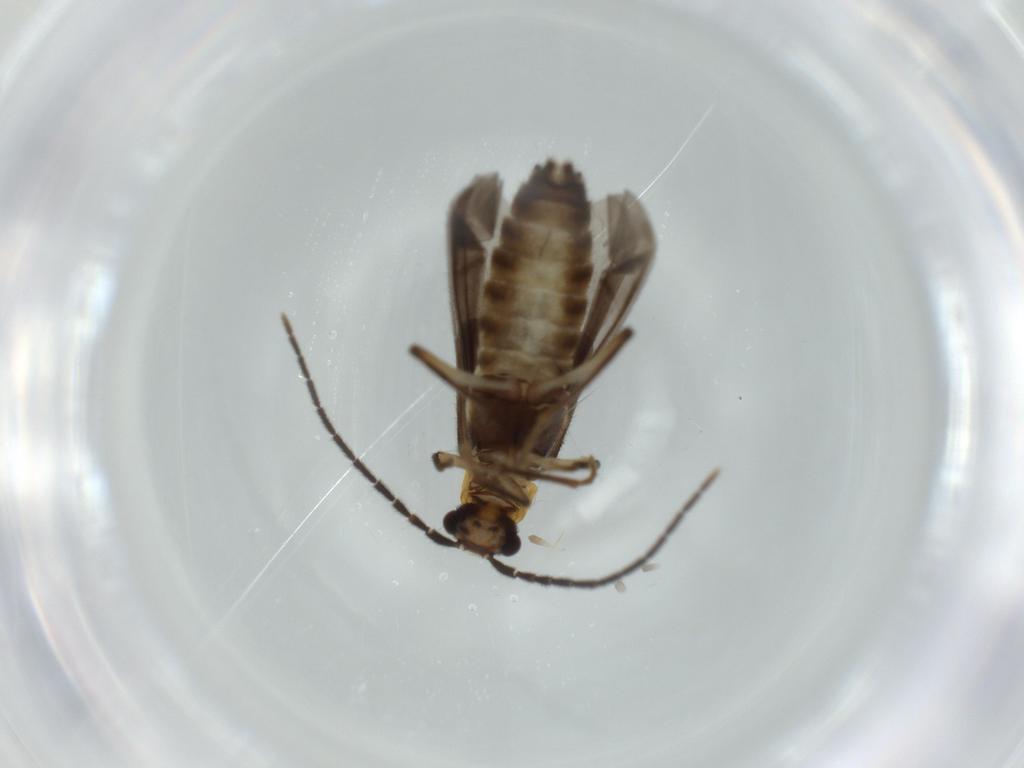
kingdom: Animalia
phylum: Arthropoda
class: Insecta
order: Coleoptera
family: Cantharidae
